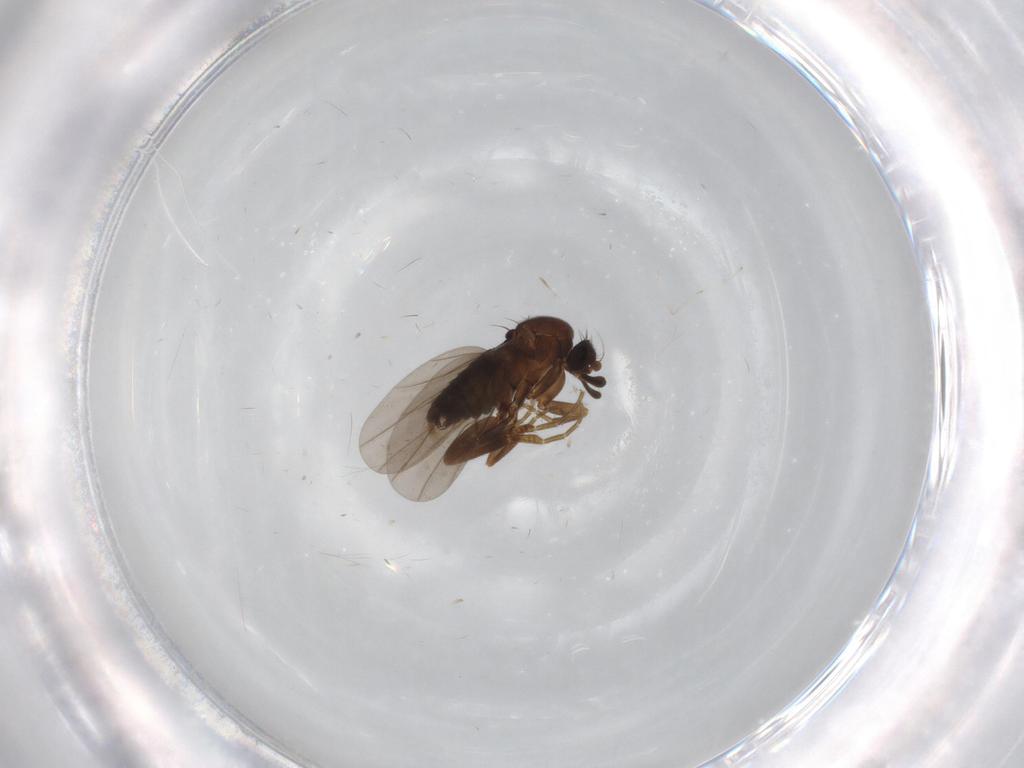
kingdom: Animalia
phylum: Arthropoda
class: Insecta
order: Diptera
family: Phoridae
